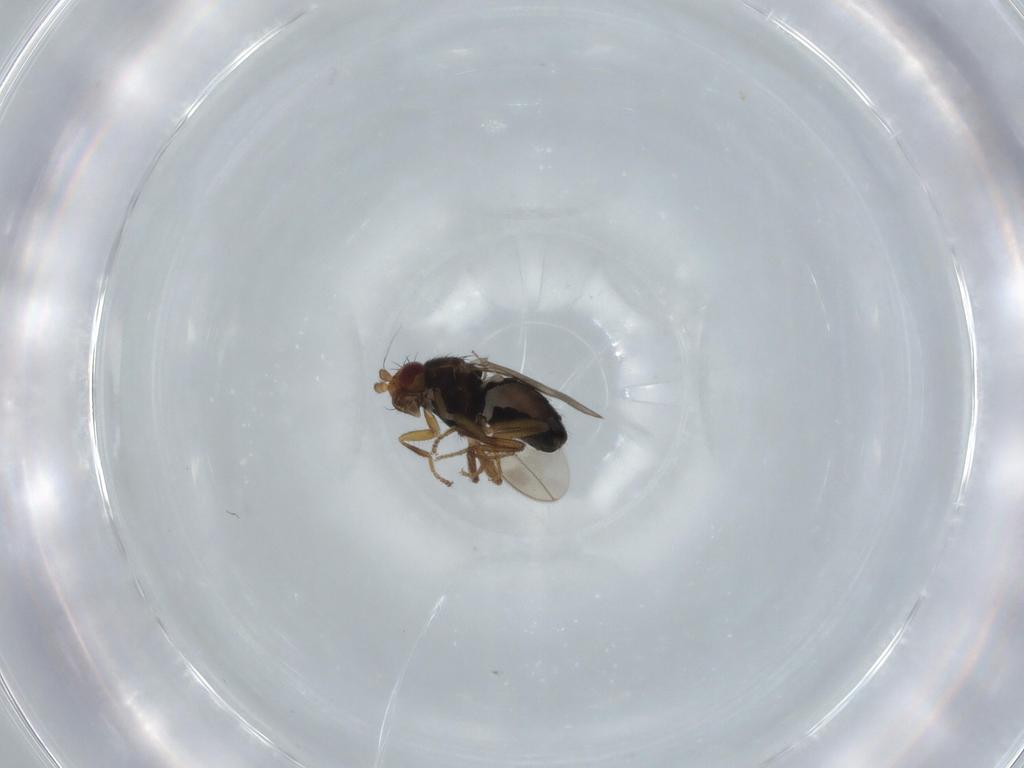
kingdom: Animalia
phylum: Arthropoda
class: Insecta
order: Diptera
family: Sphaeroceridae
